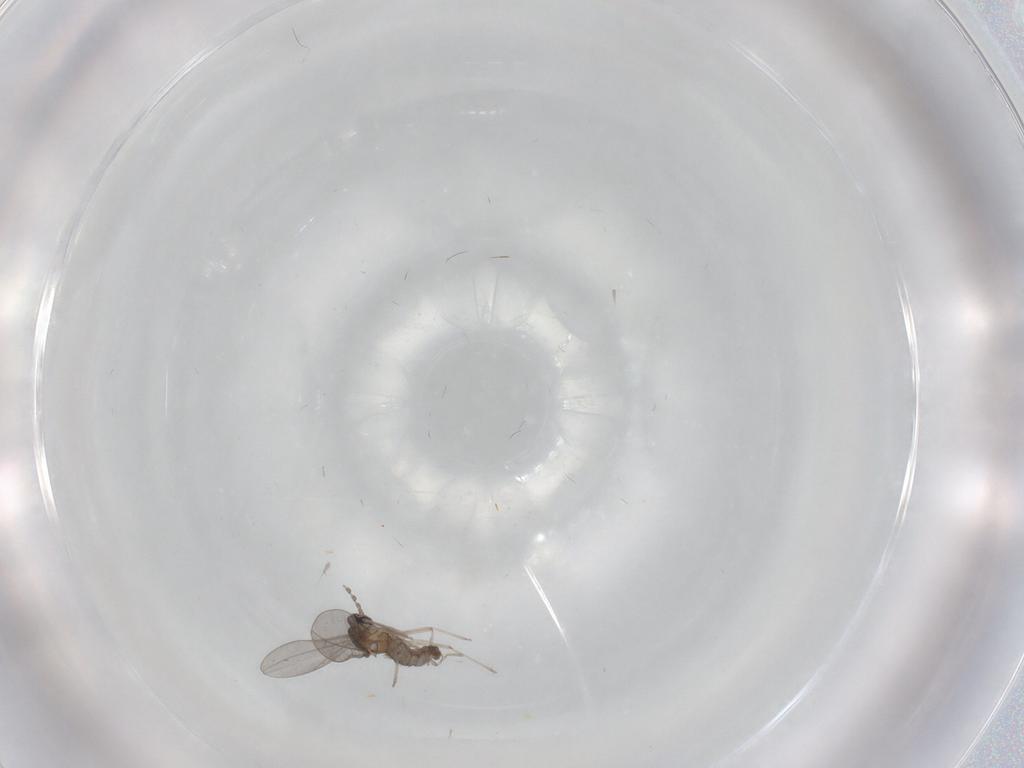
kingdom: Animalia
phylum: Arthropoda
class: Insecta
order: Diptera
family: Cecidomyiidae
